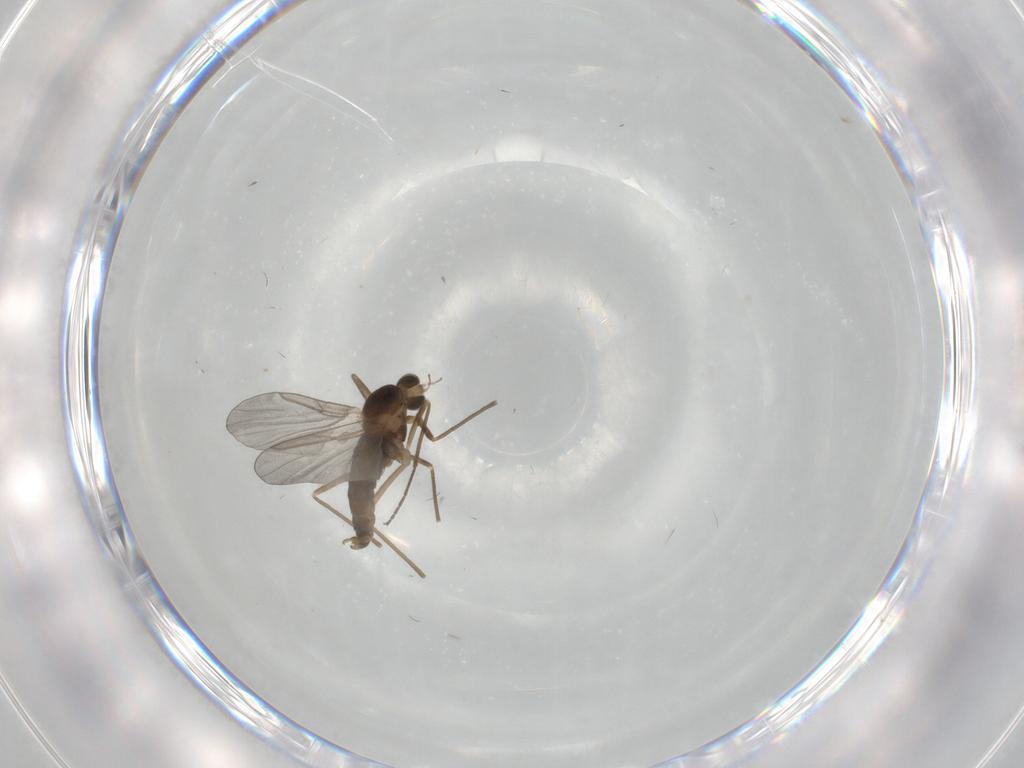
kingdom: Animalia
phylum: Arthropoda
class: Insecta
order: Diptera
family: Cecidomyiidae
